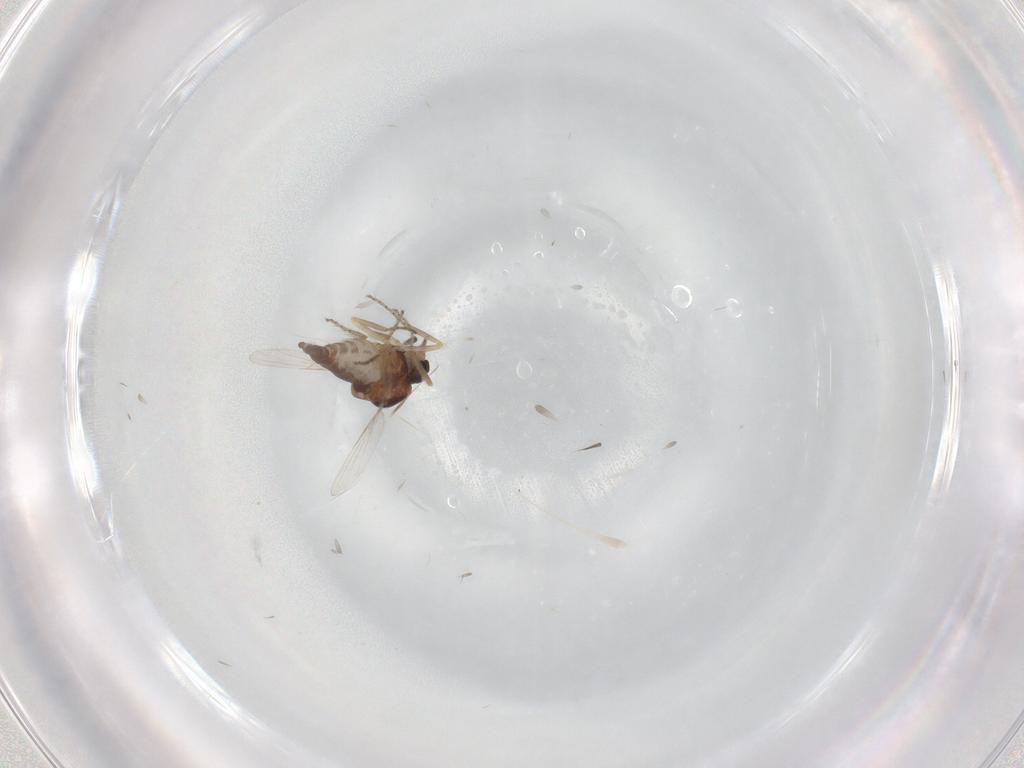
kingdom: Animalia
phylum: Arthropoda
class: Insecta
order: Diptera
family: Ceratopogonidae
